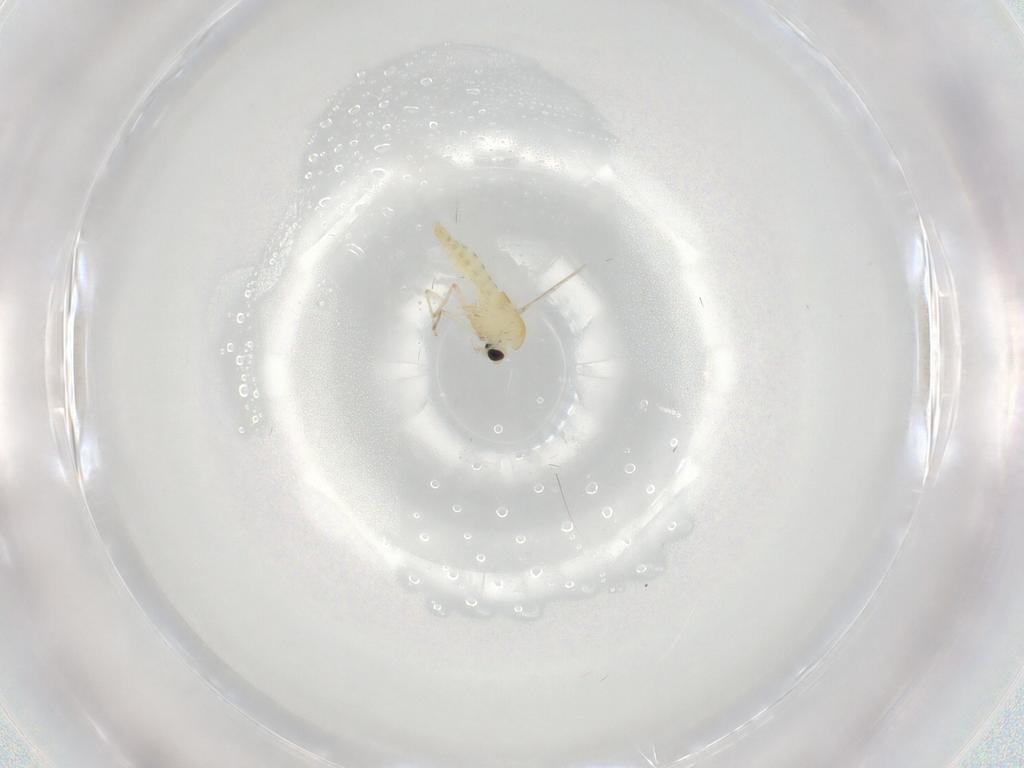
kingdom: Animalia
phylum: Arthropoda
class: Insecta
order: Diptera
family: Chironomidae
